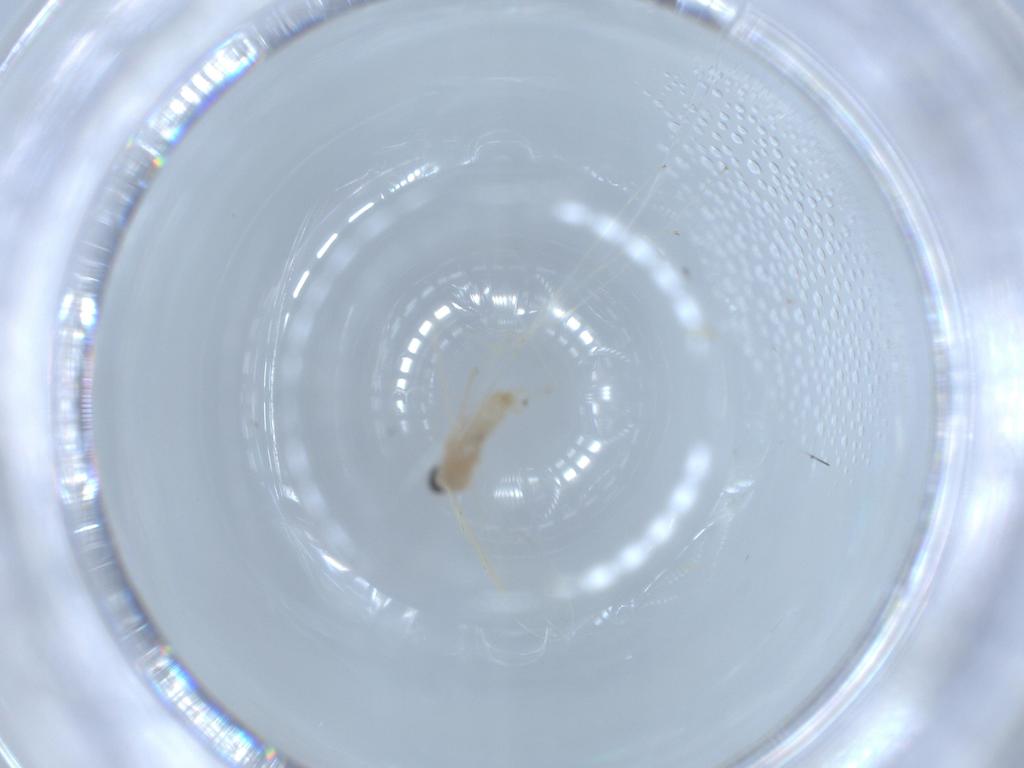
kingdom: Animalia
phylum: Arthropoda
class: Insecta
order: Diptera
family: Cecidomyiidae
